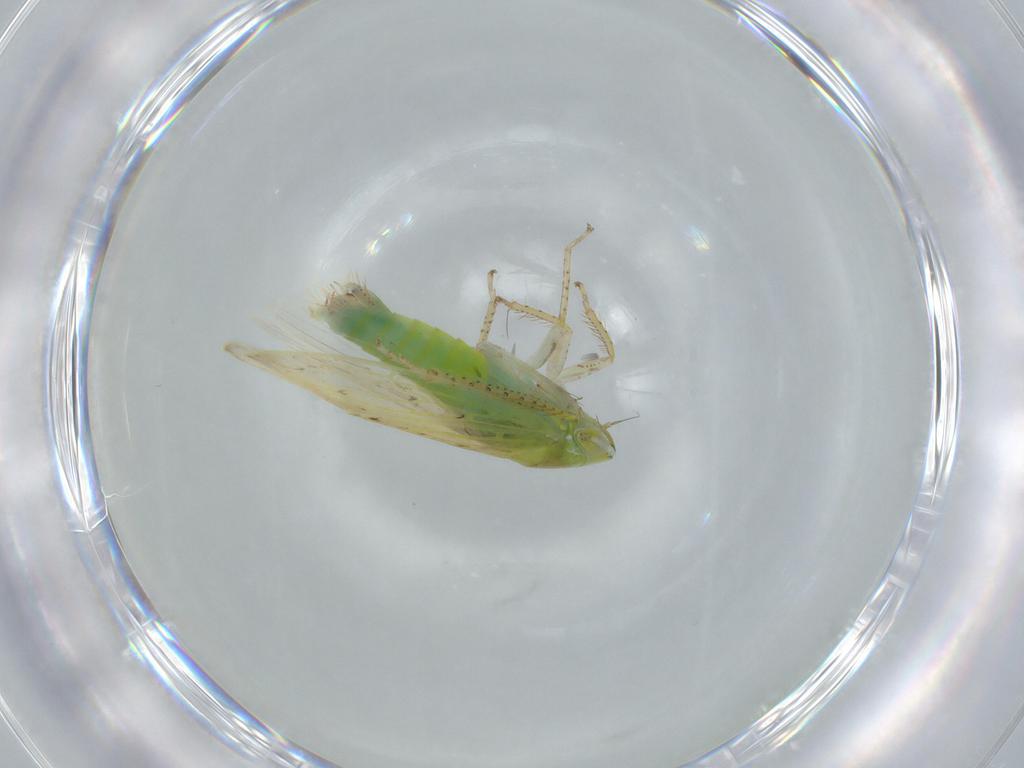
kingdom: Animalia
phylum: Arthropoda
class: Insecta
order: Hemiptera
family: Cicadellidae
